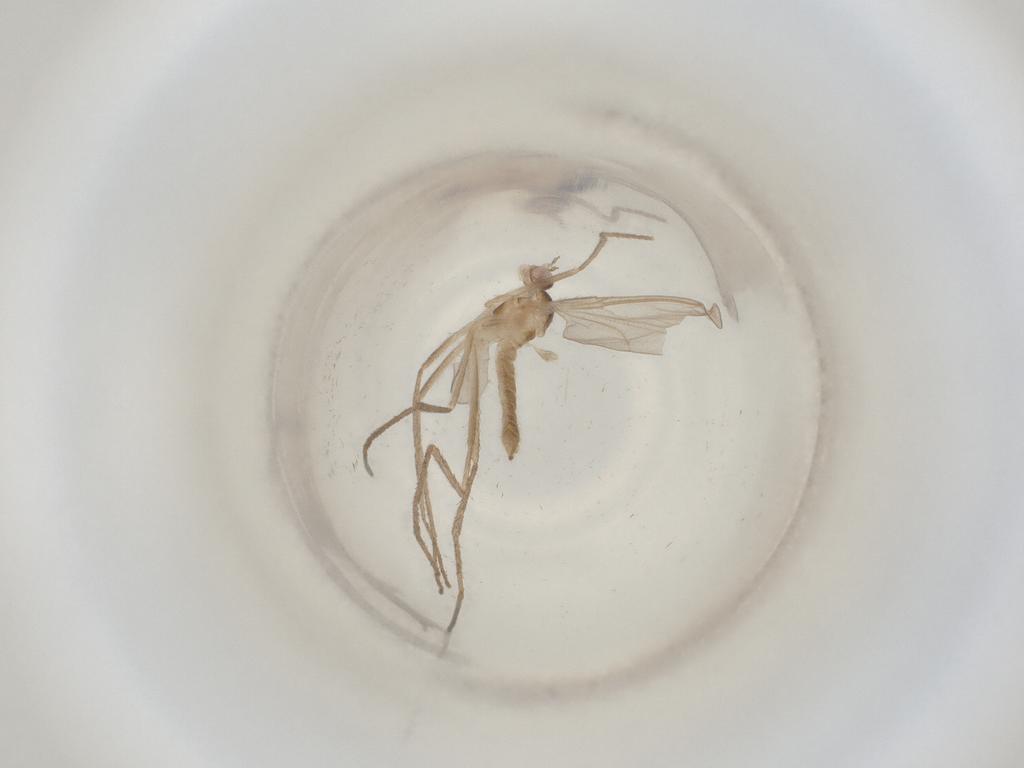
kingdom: Animalia
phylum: Arthropoda
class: Insecta
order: Diptera
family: Cecidomyiidae
